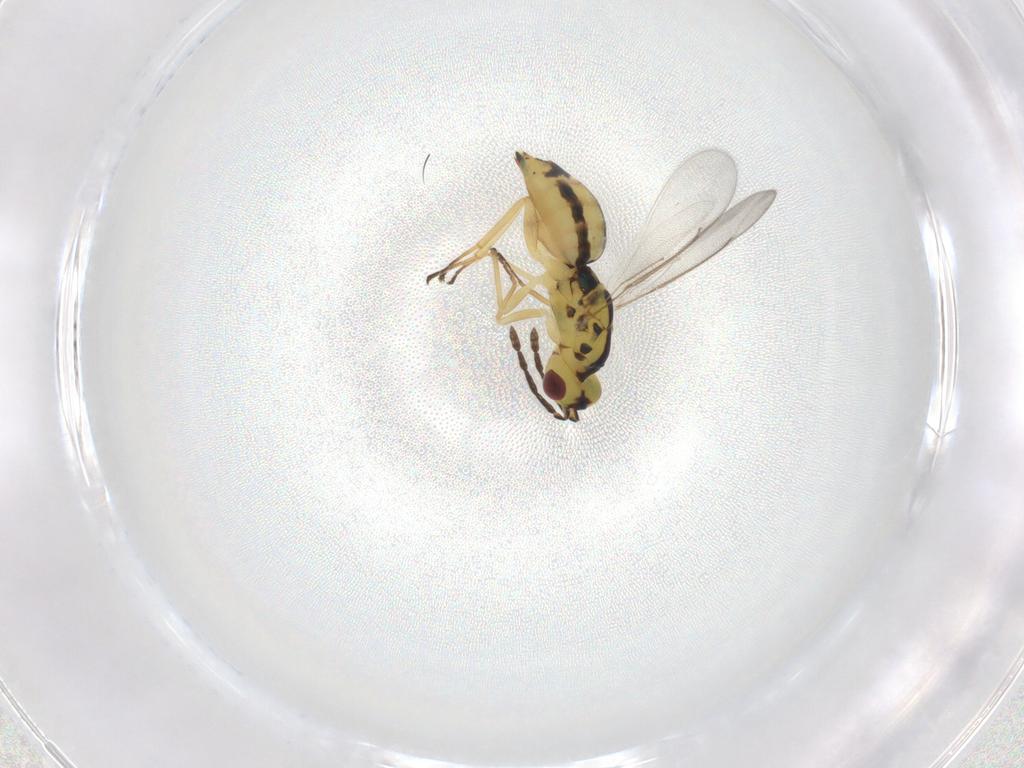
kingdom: Animalia
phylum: Arthropoda
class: Insecta
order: Hymenoptera
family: Eulophidae
